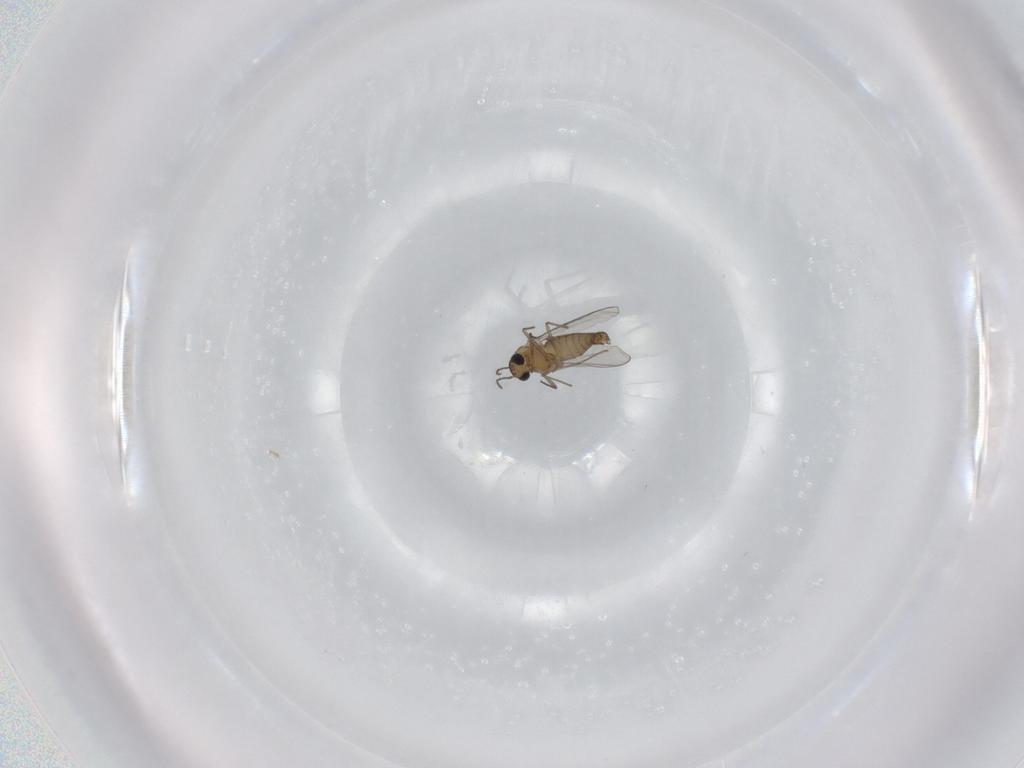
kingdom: Animalia
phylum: Arthropoda
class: Insecta
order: Diptera
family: Chironomidae
